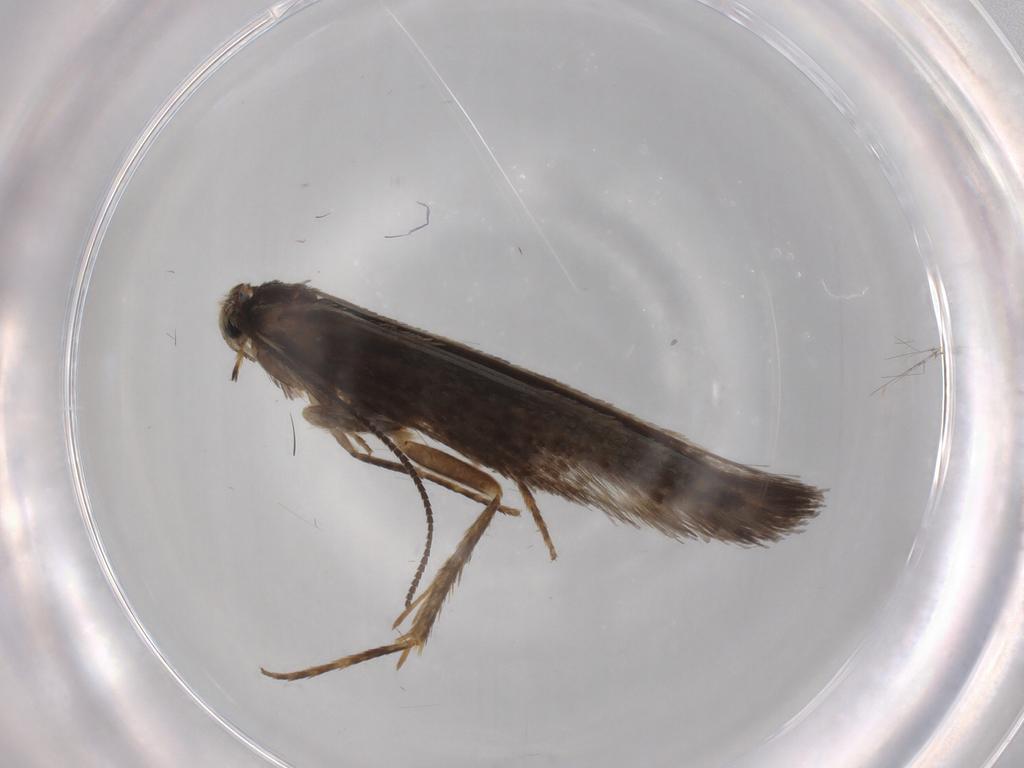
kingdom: Animalia
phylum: Arthropoda
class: Insecta
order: Lepidoptera
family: Nepticulidae
